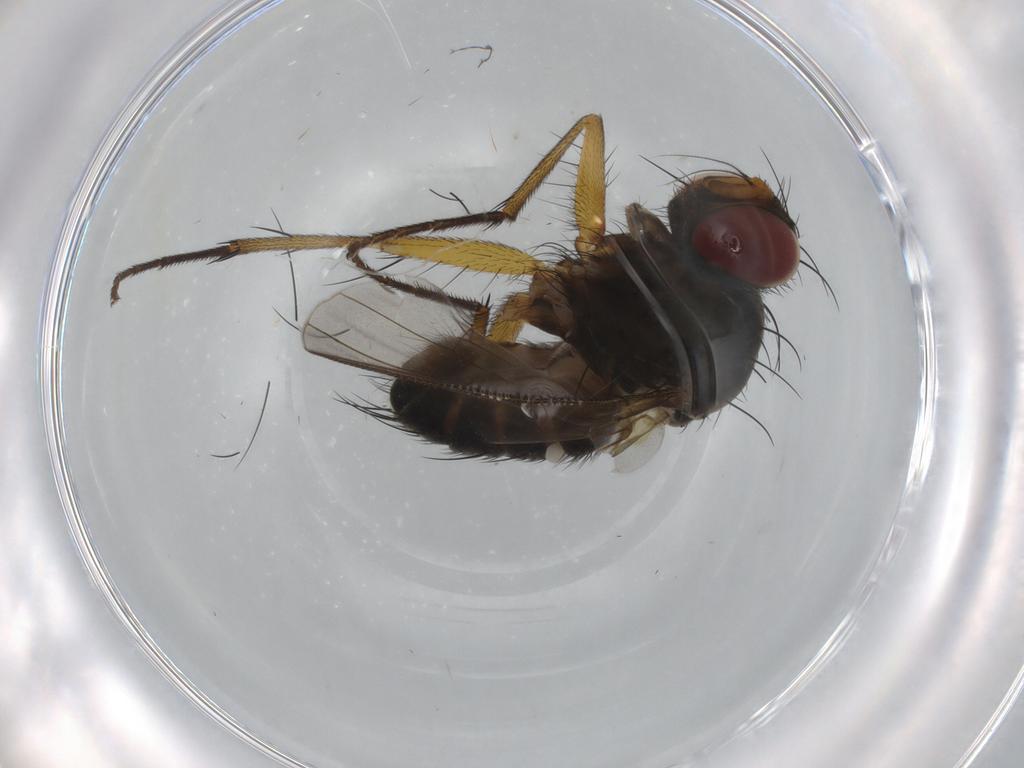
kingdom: Animalia
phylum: Arthropoda
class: Insecta
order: Diptera
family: Muscidae
